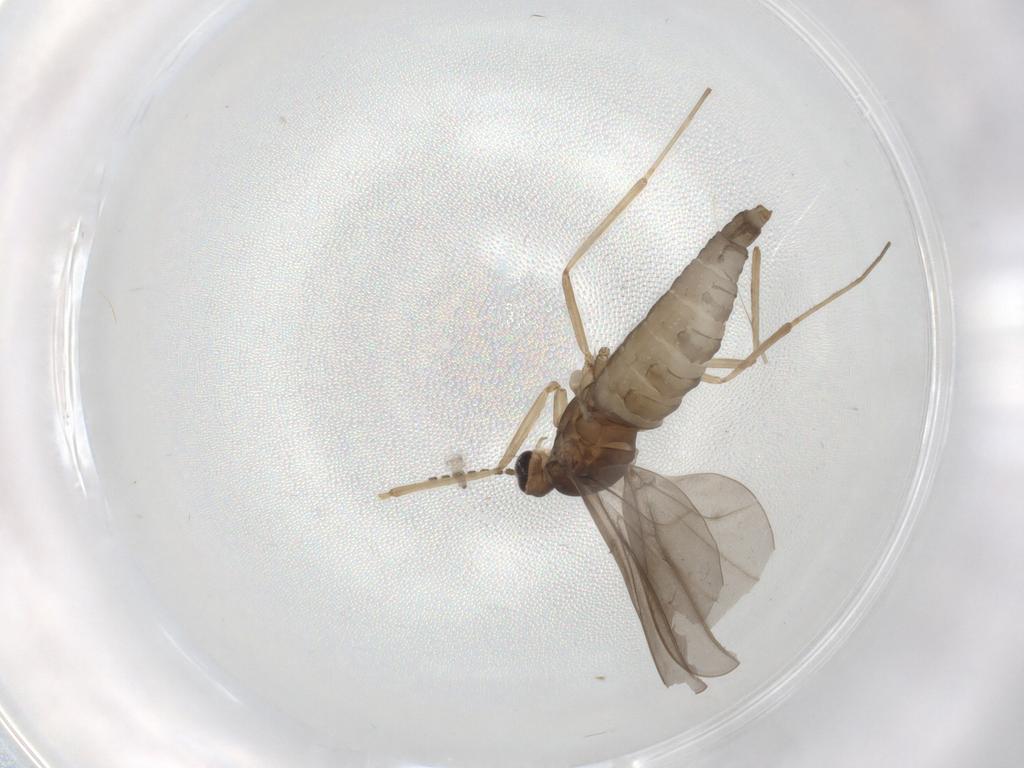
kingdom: Animalia
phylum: Arthropoda
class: Insecta
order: Diptera
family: Cecidomyiidae
